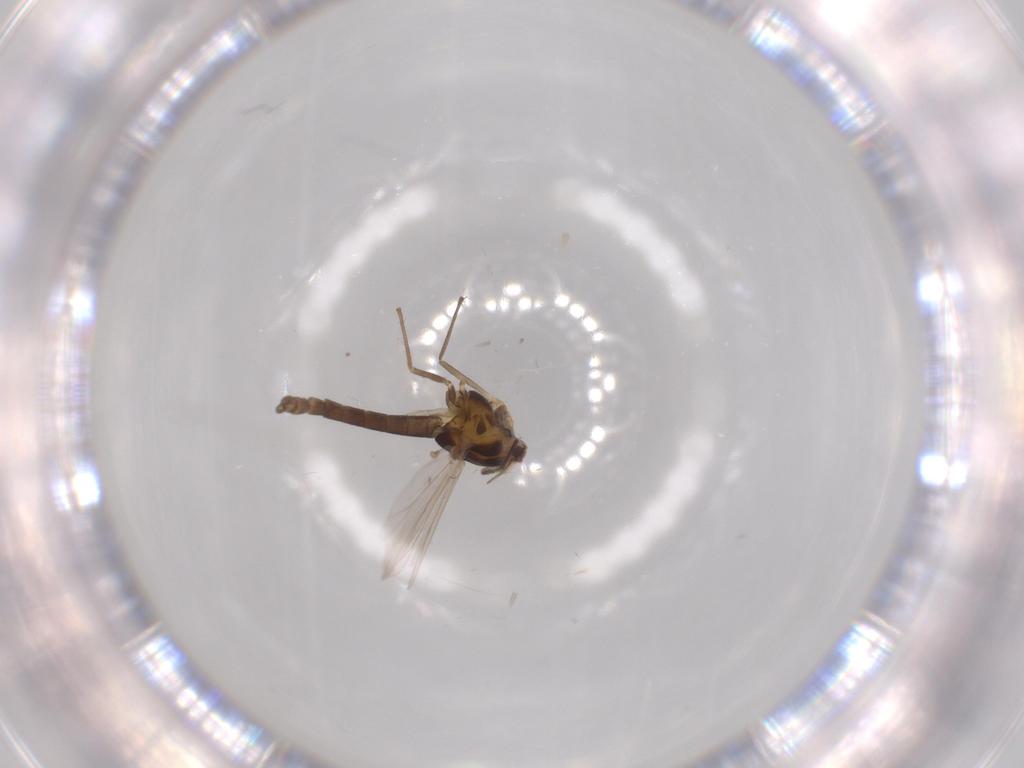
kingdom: Animalia
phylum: Arthropoda
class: Insecta
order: Diptera
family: Chironomidae
